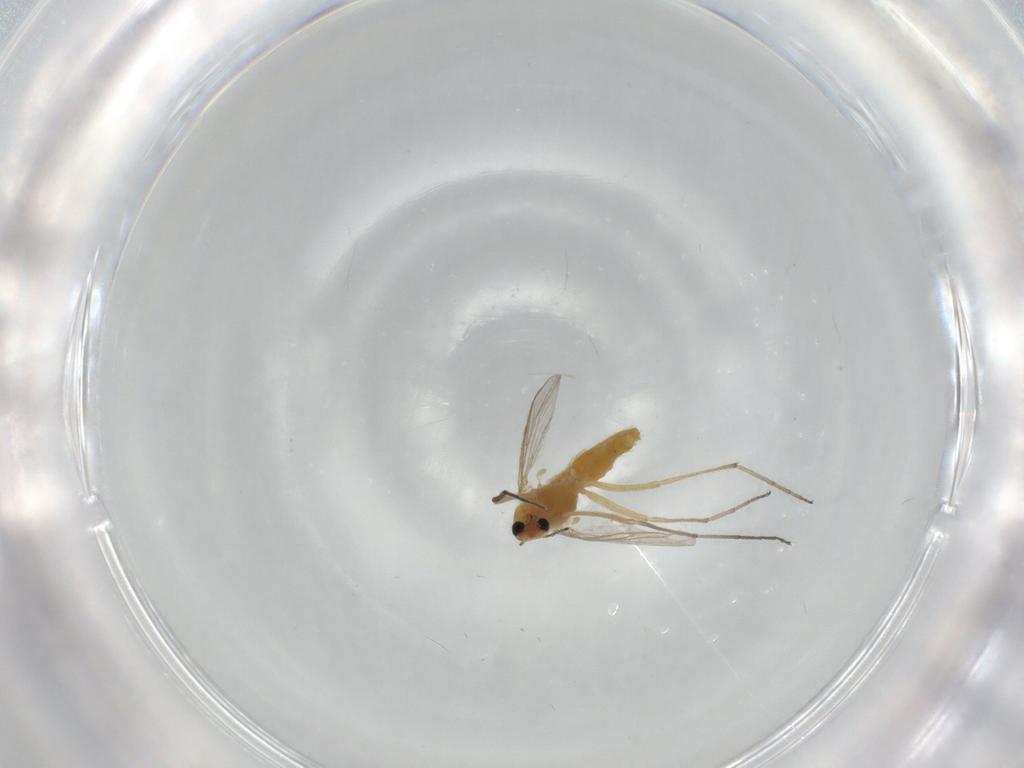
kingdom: Animalia
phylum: Arthropoda
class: Insecta
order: Diptera
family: Chironomidae
